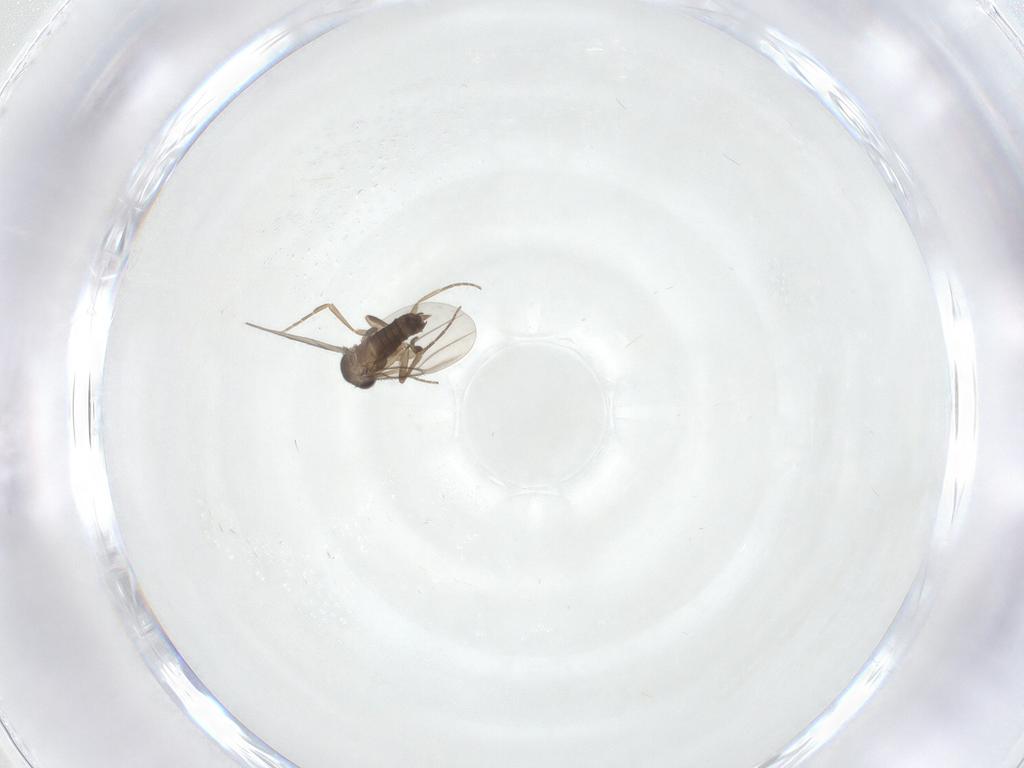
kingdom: Animalia
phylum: Arthropoda
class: Insecta
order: Diptera
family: Phoridae
